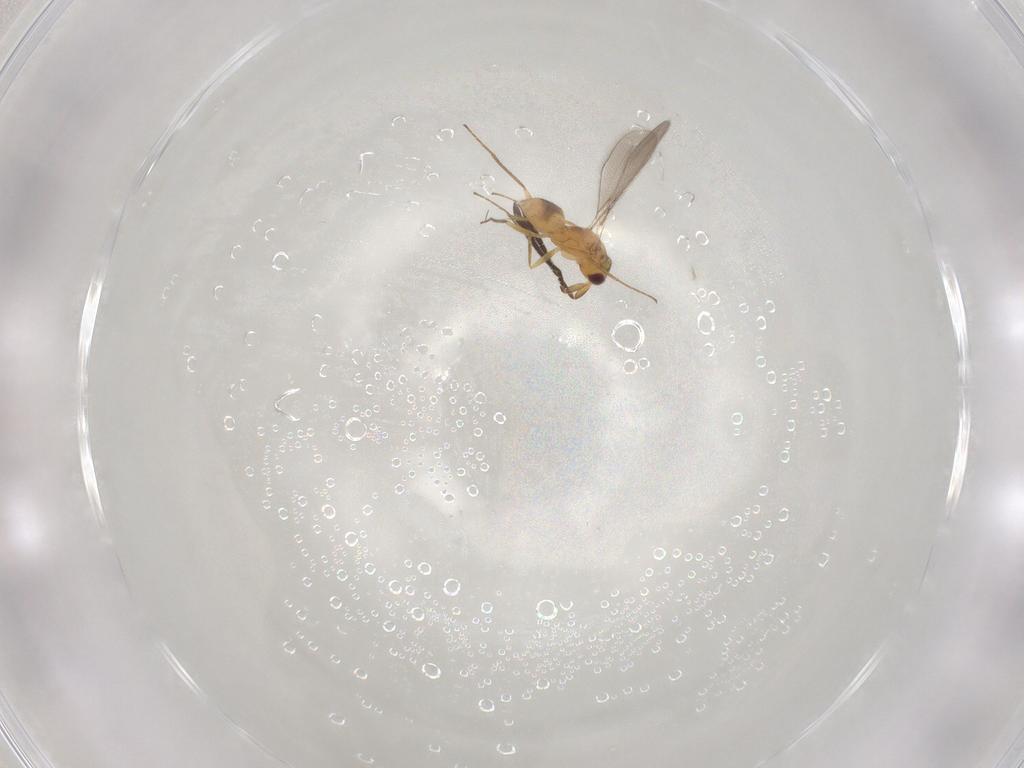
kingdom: Animalia
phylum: Arthropoda
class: Insecta
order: Hymenoptera
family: Mymaridae
